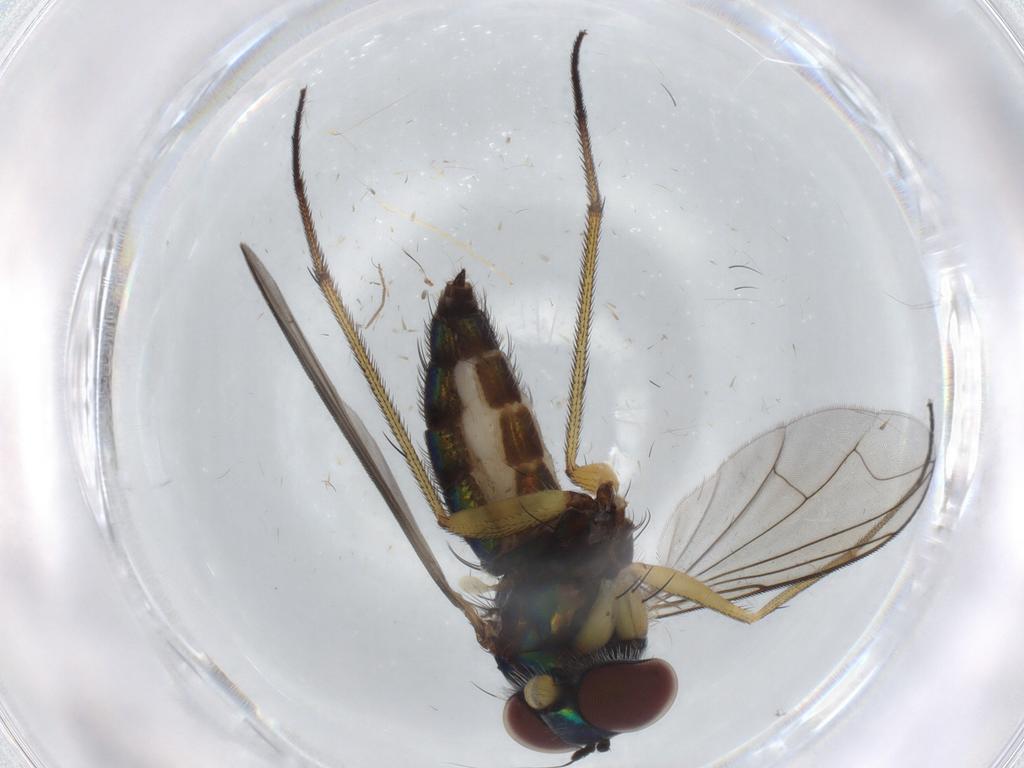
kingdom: Animalia
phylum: Arthropoda
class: Insecta
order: Diptera
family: Dolichopodidae
